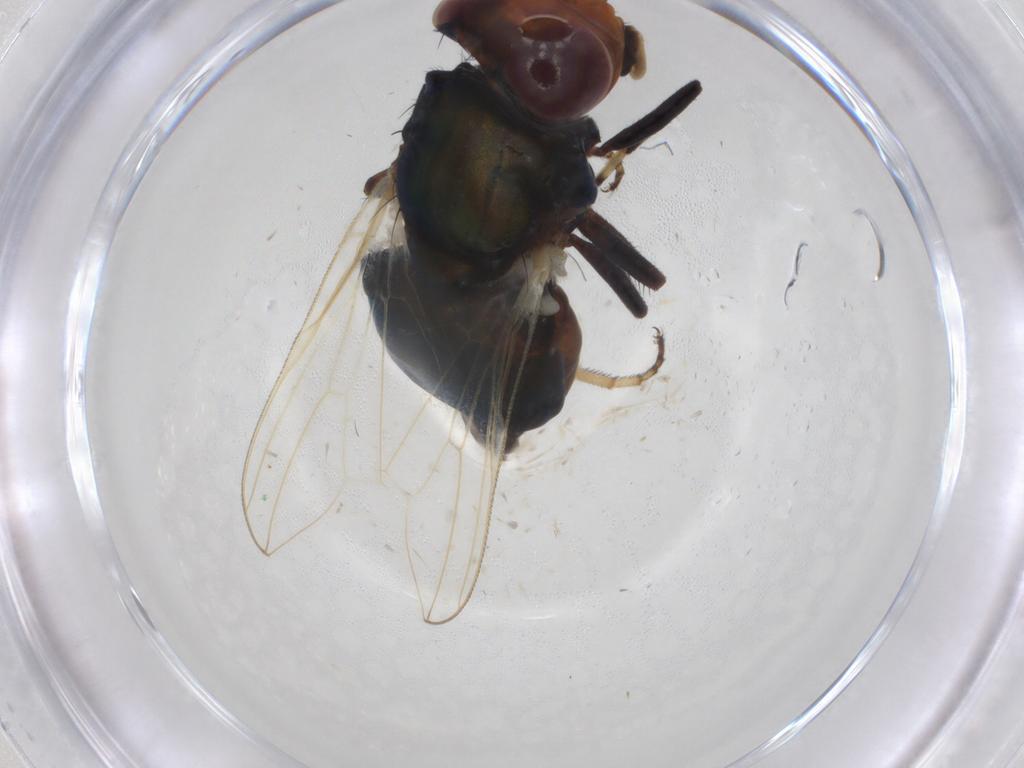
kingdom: Animalia
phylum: Arthropoda
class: Insecta
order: Diptera
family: Ulidiidae
